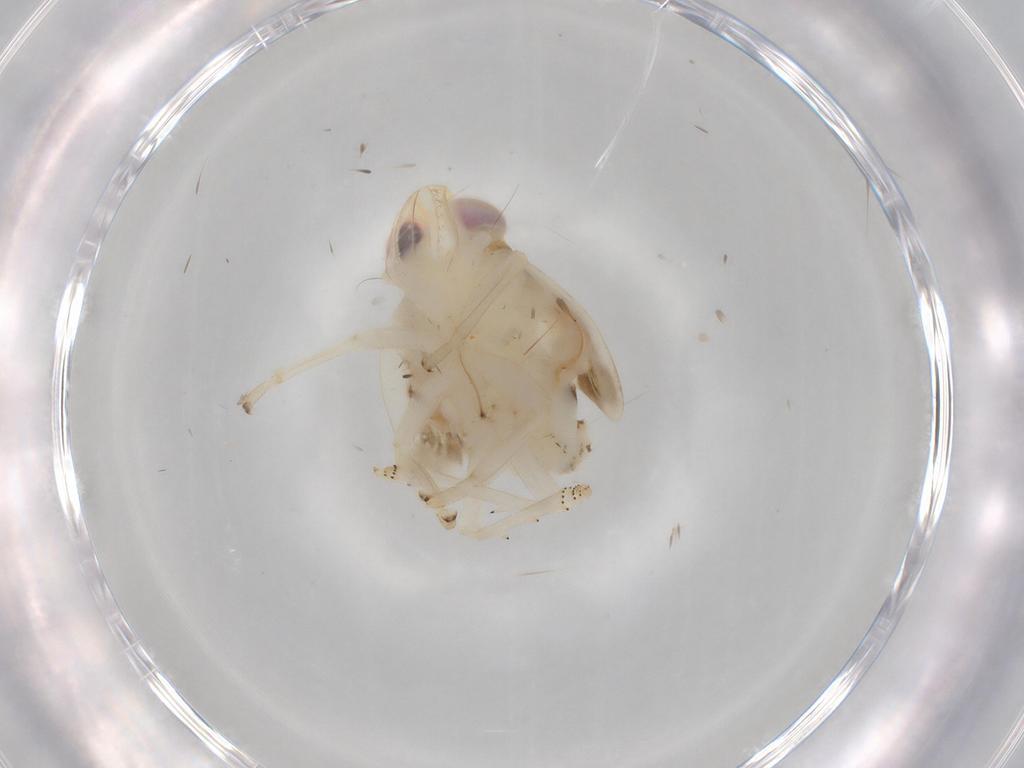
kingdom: Animalia
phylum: Arthropoda
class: Insecta
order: Hemiptera
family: Nogodinidae
